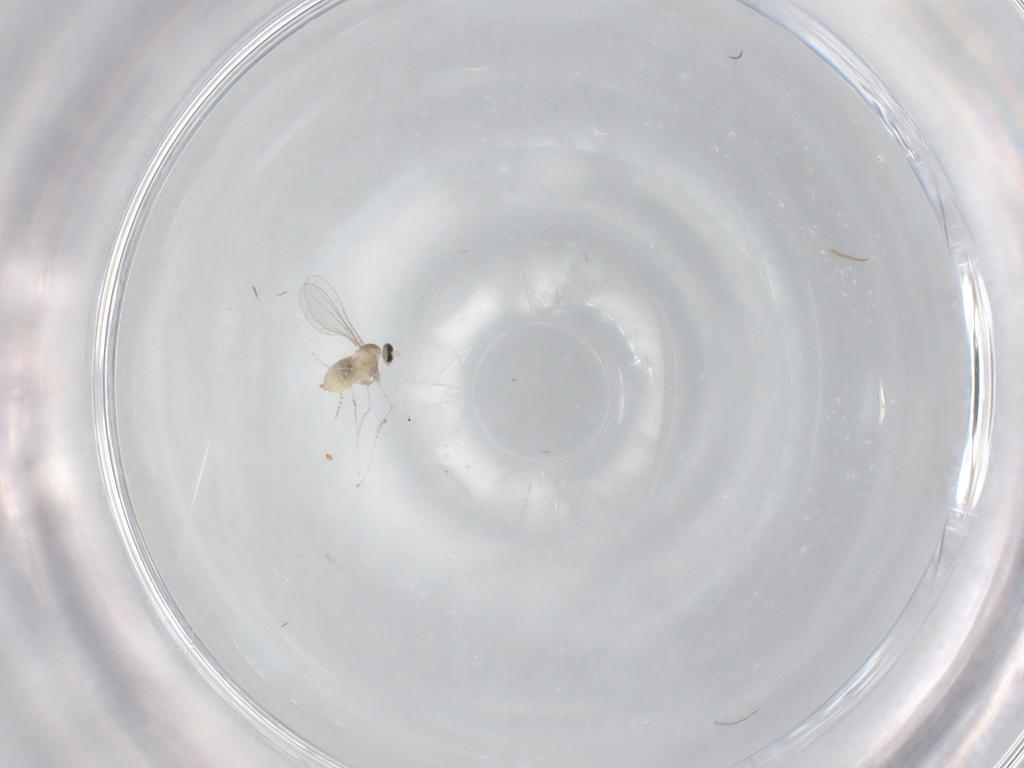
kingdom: Animalia
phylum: Arthropoda
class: Insecta
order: Diptera
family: Cecidomyiidae
